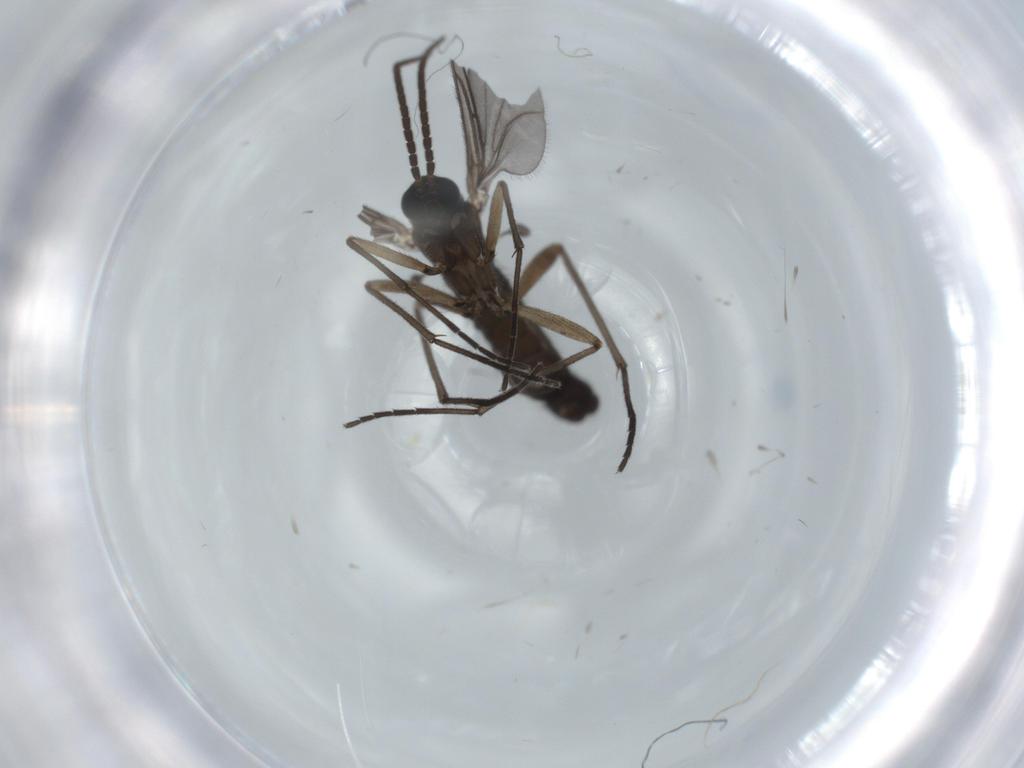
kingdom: Animalia
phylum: Arthropoda
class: Insecta
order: Diptera
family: Sciaridae
